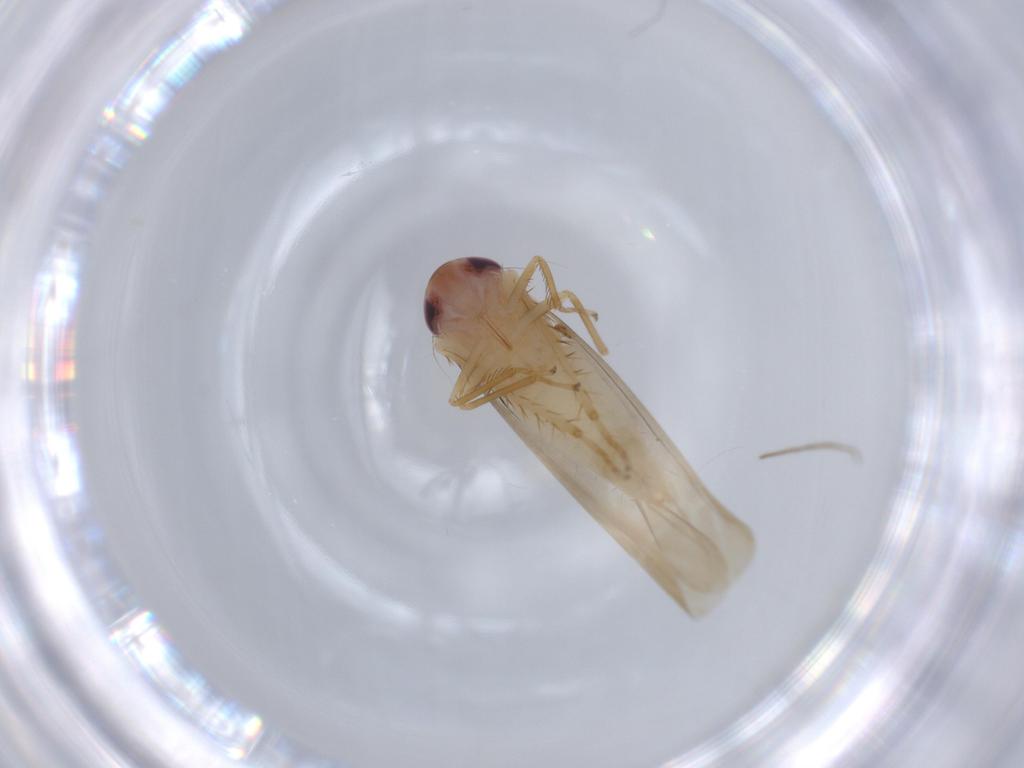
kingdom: Animalia
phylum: Arthropoda
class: Insecta
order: Hemiptera
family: Cicadellidae
